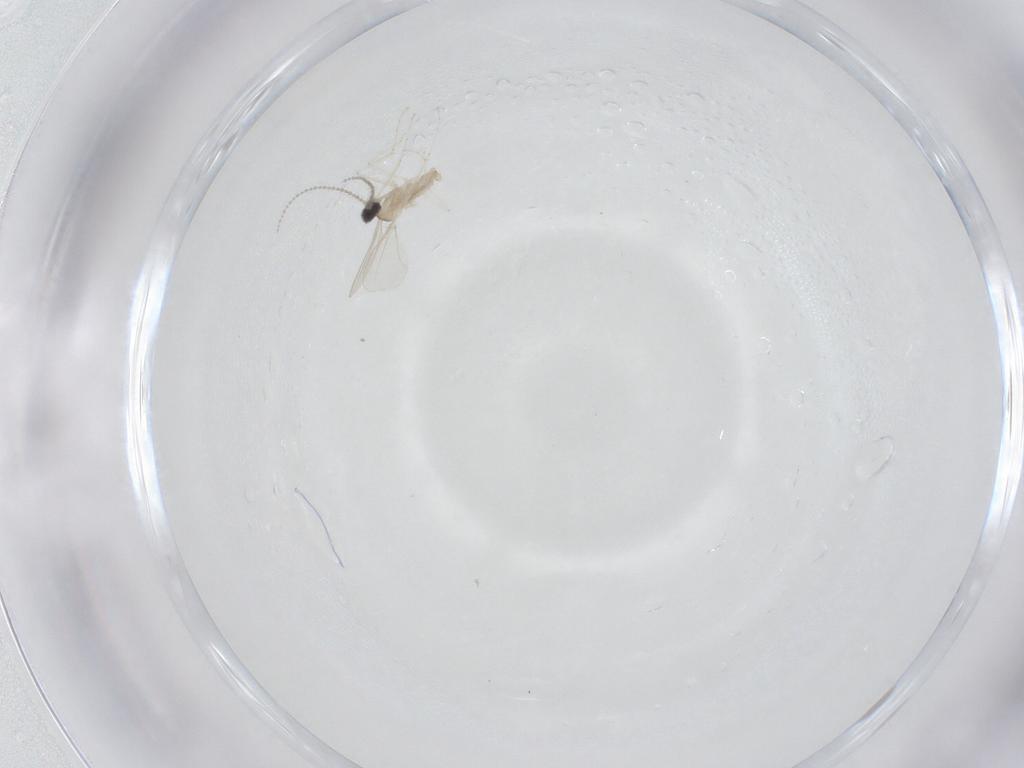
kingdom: Animalia
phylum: Arthropoda
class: Insecta
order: Diptera
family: Cecidomyiidae
